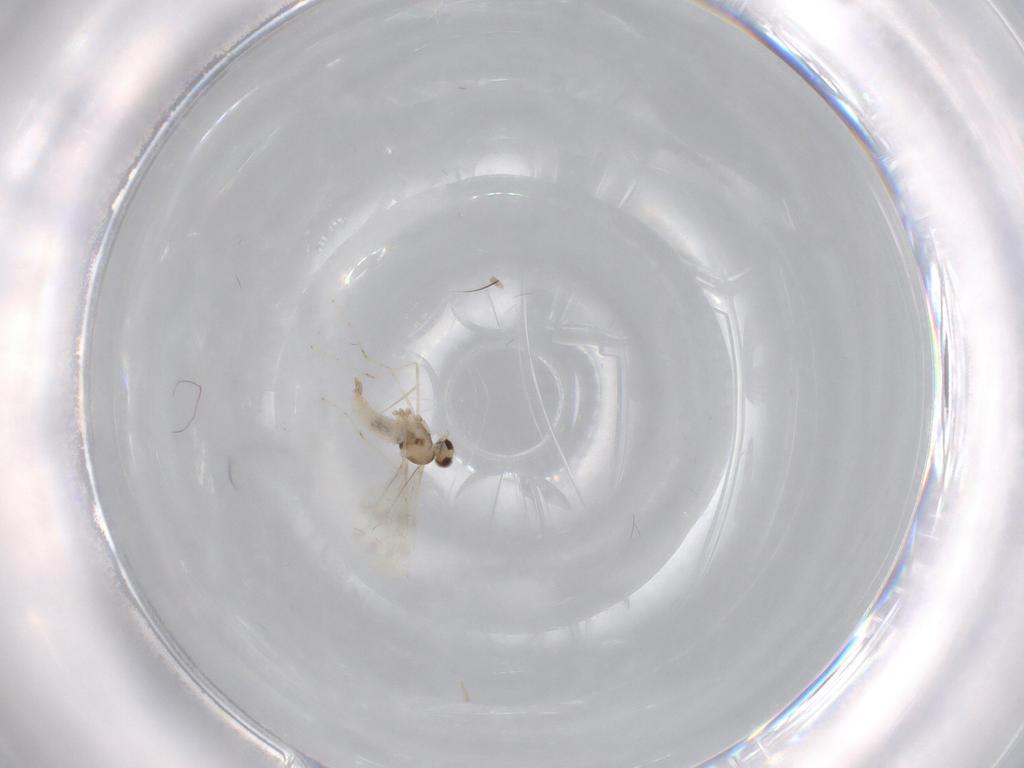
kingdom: Animalia
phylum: Arthropoda
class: Insecta
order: Diptera
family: Cecidomyiidae
